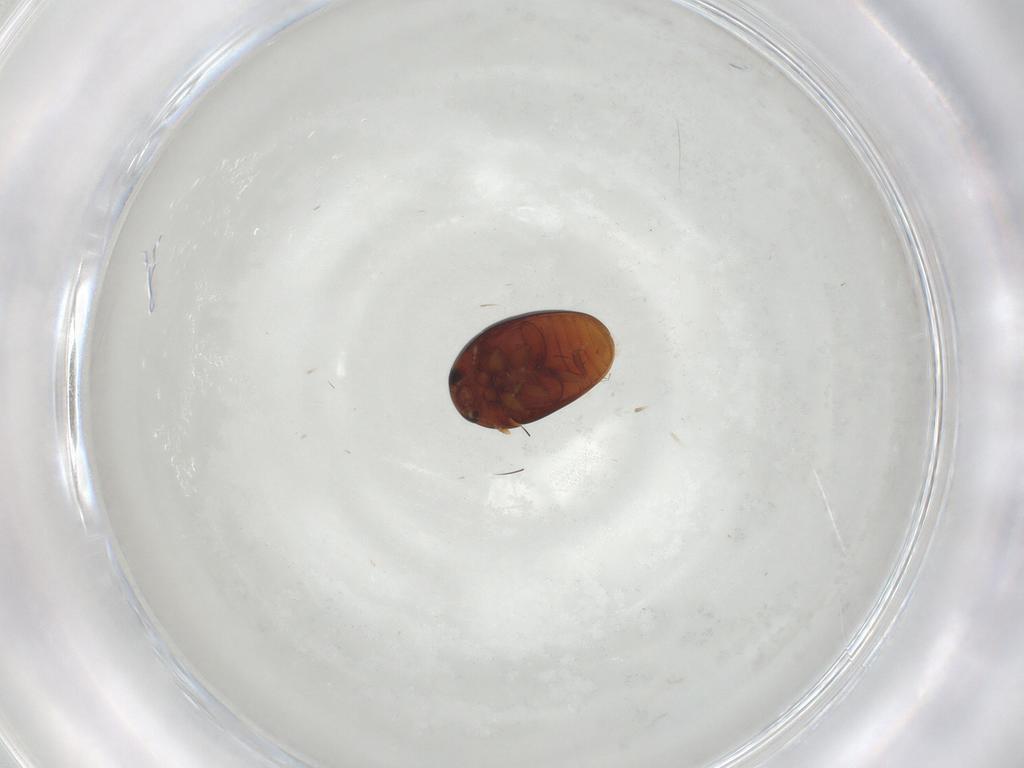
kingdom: Animalia
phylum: Arthropoda
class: Insecta
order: Coleoptera
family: Phalacridae
